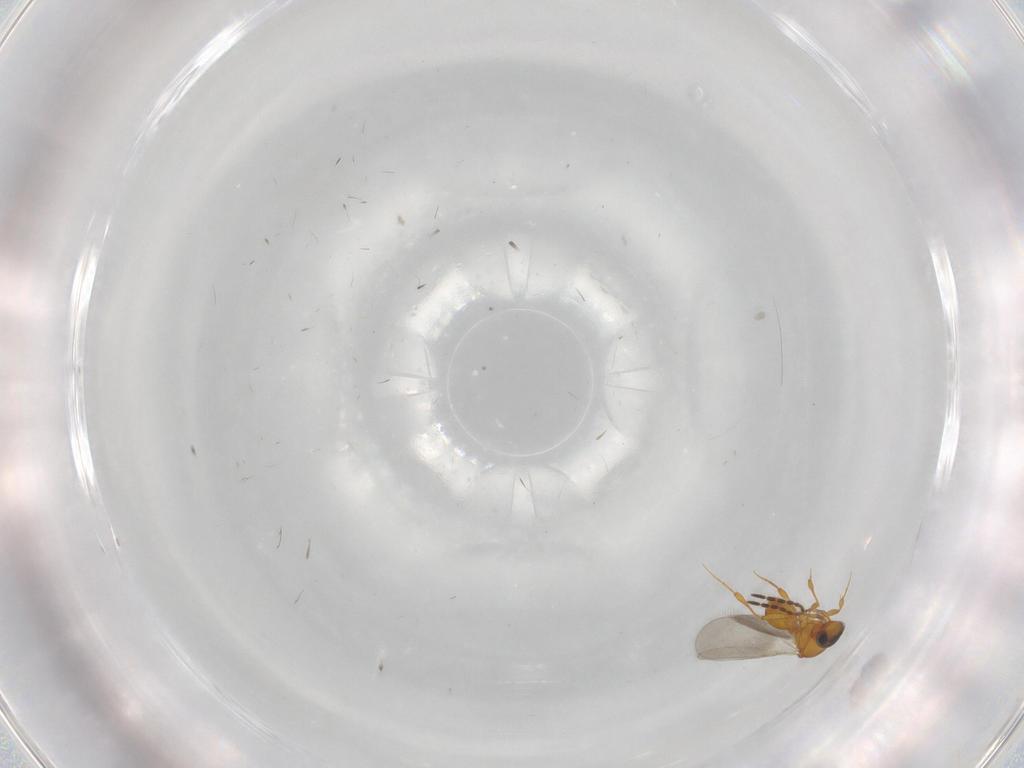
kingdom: Animalia
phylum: Arthropoda
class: Insecta
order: Hymenoptera
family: Platygastridae
